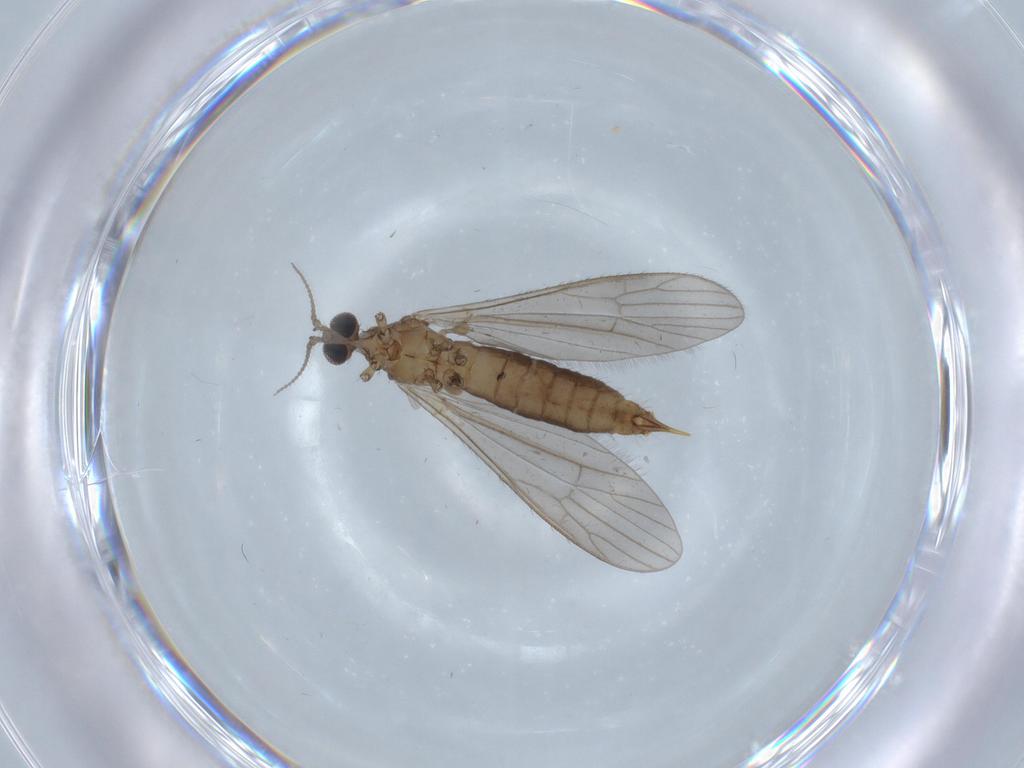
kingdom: Animalia
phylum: Arthropoda
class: Insecta
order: Diptera
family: Limoniidae
